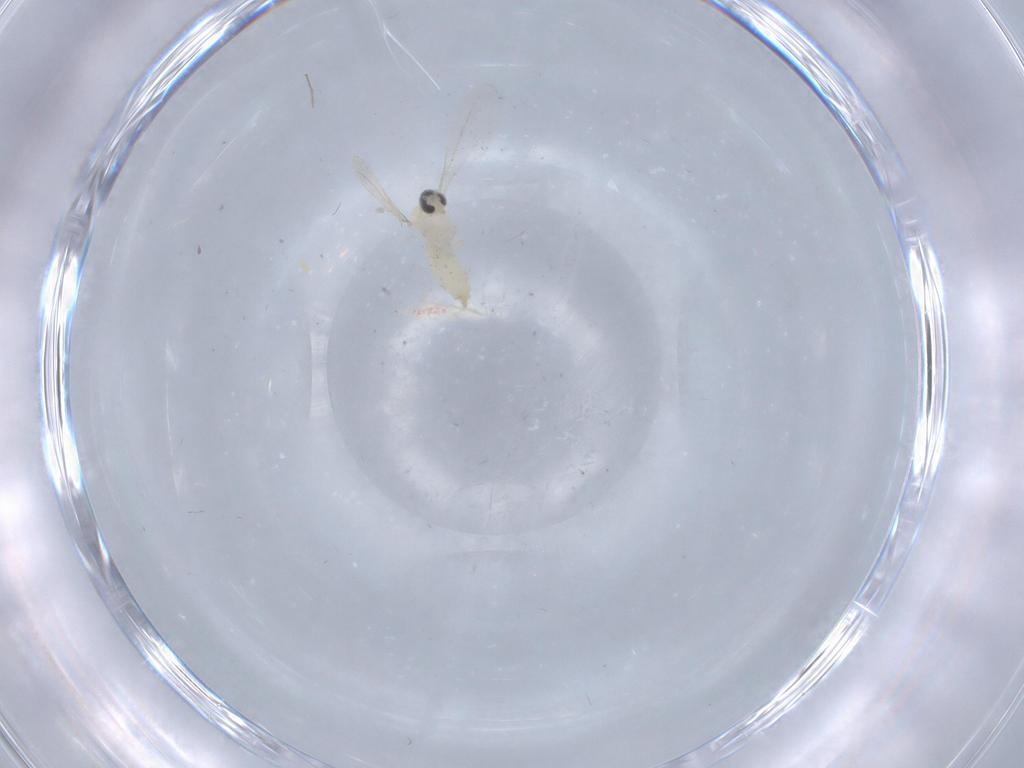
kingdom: Animalia
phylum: Arthropoda
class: Insecta
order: Diptera
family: Cecidomyiidae
